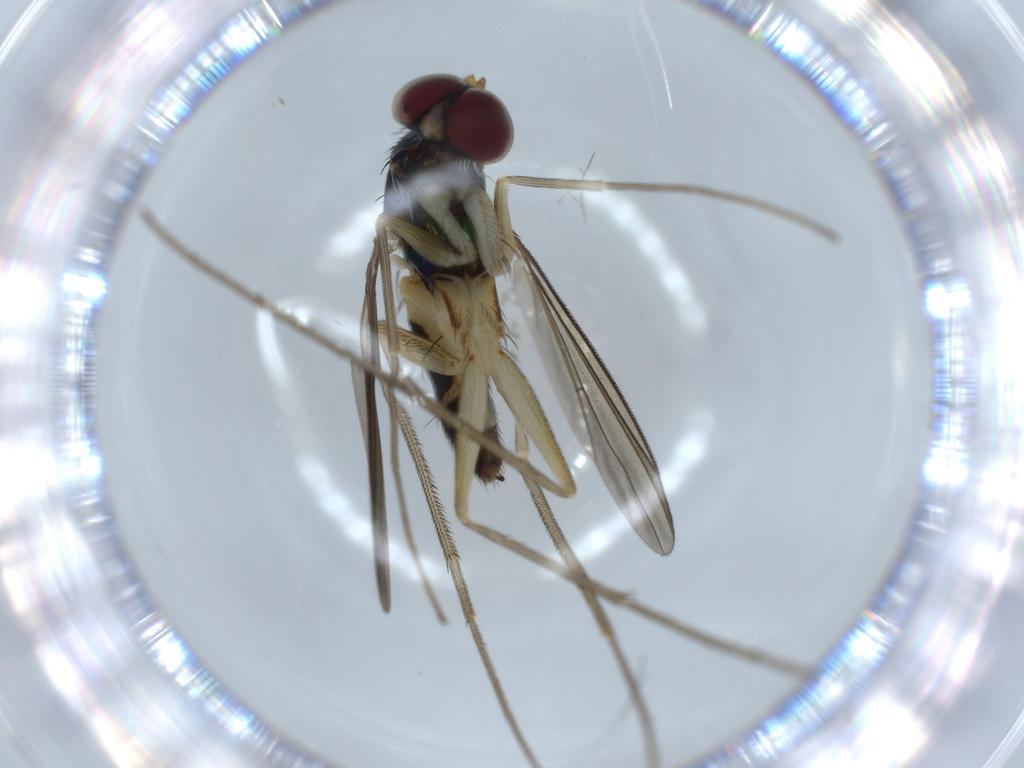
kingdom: Animalia
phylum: Arthropoda
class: Insecta
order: Diptera
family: Dolichopodidae
